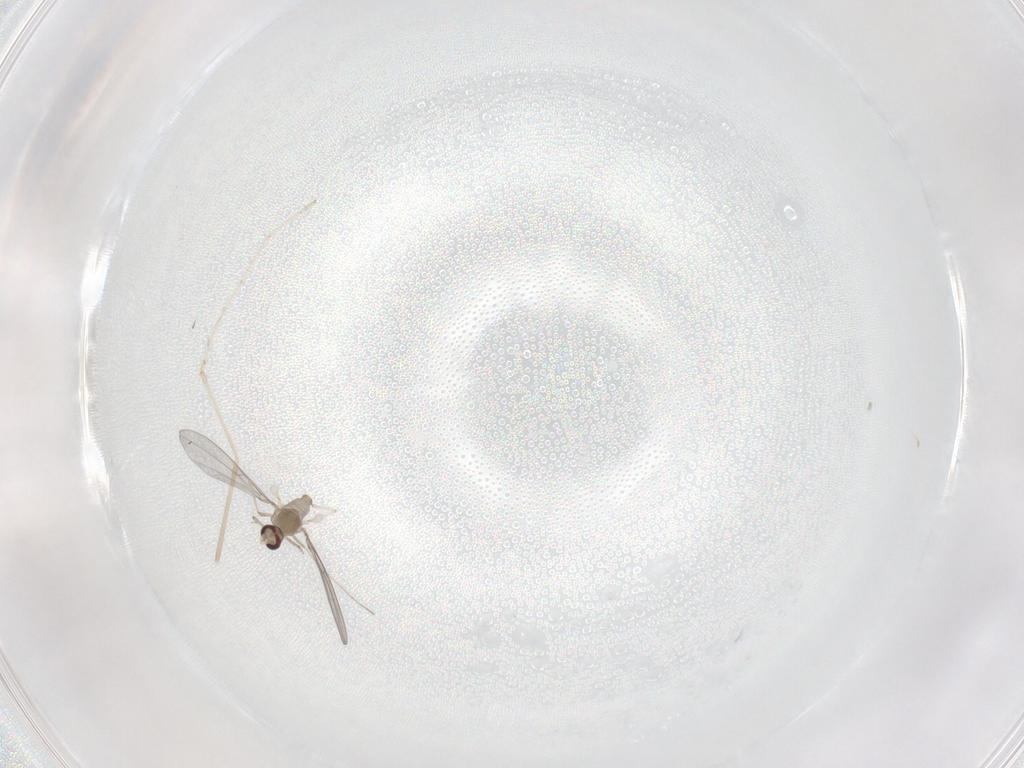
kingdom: Animalia
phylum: Arthropoda
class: Insecta
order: Diptera
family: Cecidomyiidae
